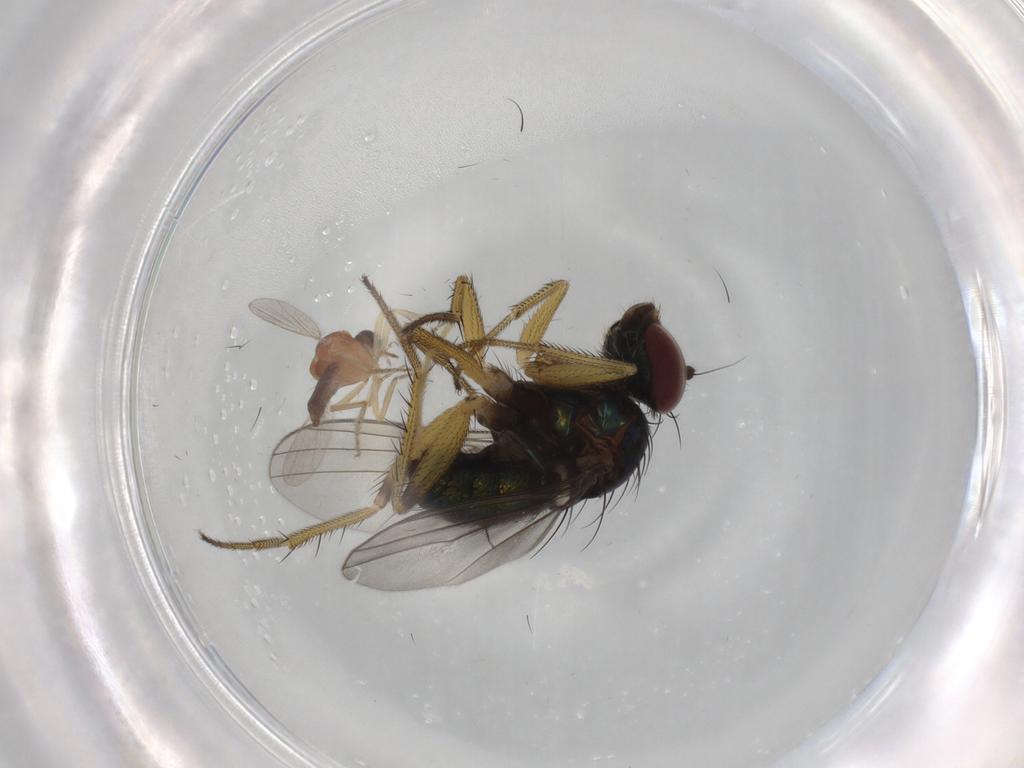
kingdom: Animalia
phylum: Arthropoda
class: Insecta
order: Diptera
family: Dolichopodidae
